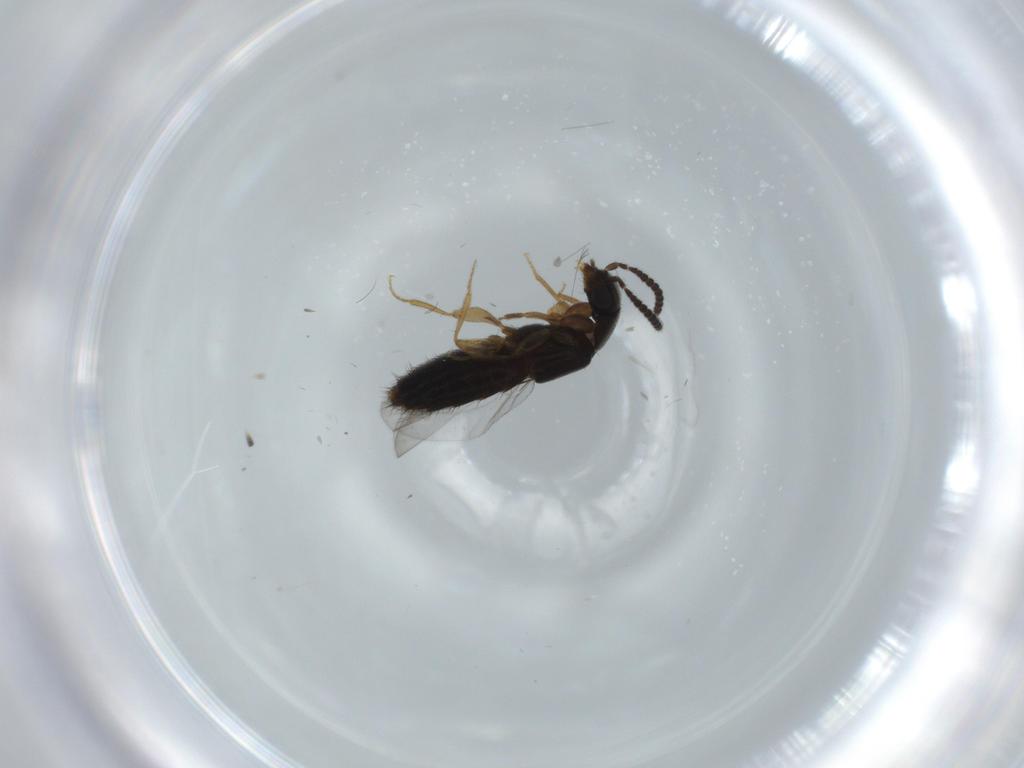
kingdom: Animalia
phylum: Arthropoda
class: Insecta
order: Coleoptera
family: Staphylinidae
